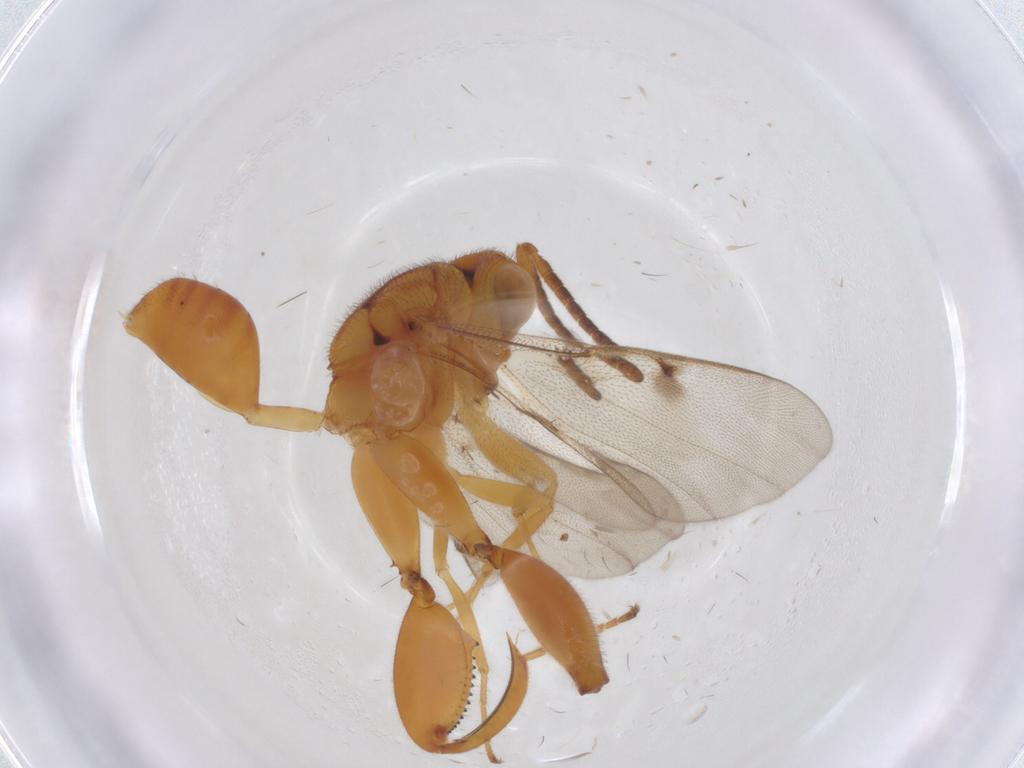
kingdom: Animalia
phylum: Arthropoda
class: Insecta
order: Hymenoptera
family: Chalcididae
